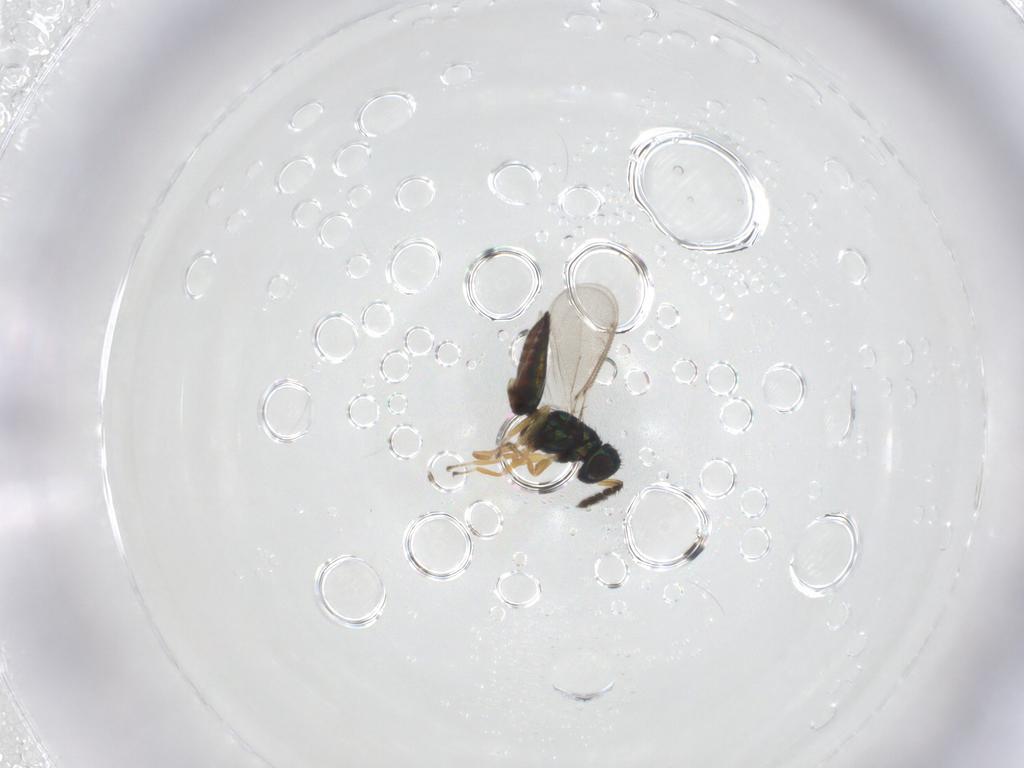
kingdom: Animalia
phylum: Arthropoda
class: Insecta
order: Hymenoptera
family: Eulophidae
